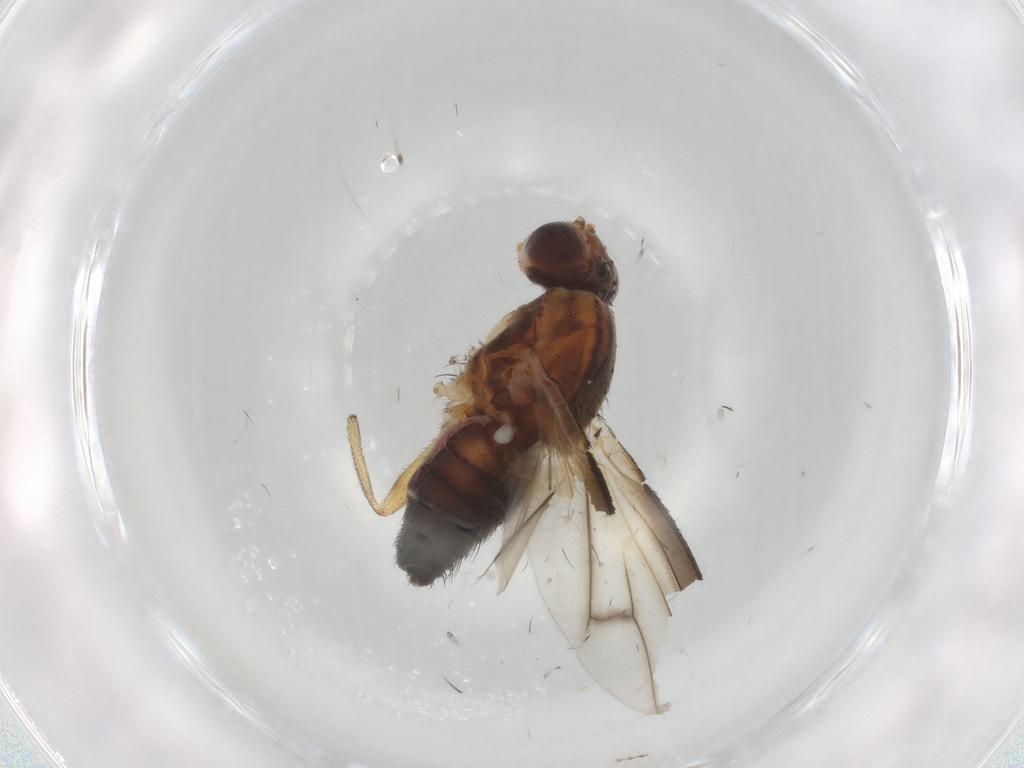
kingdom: Animalia
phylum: Arthropoda
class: Insecta
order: Diptera
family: Heleomyzidae
